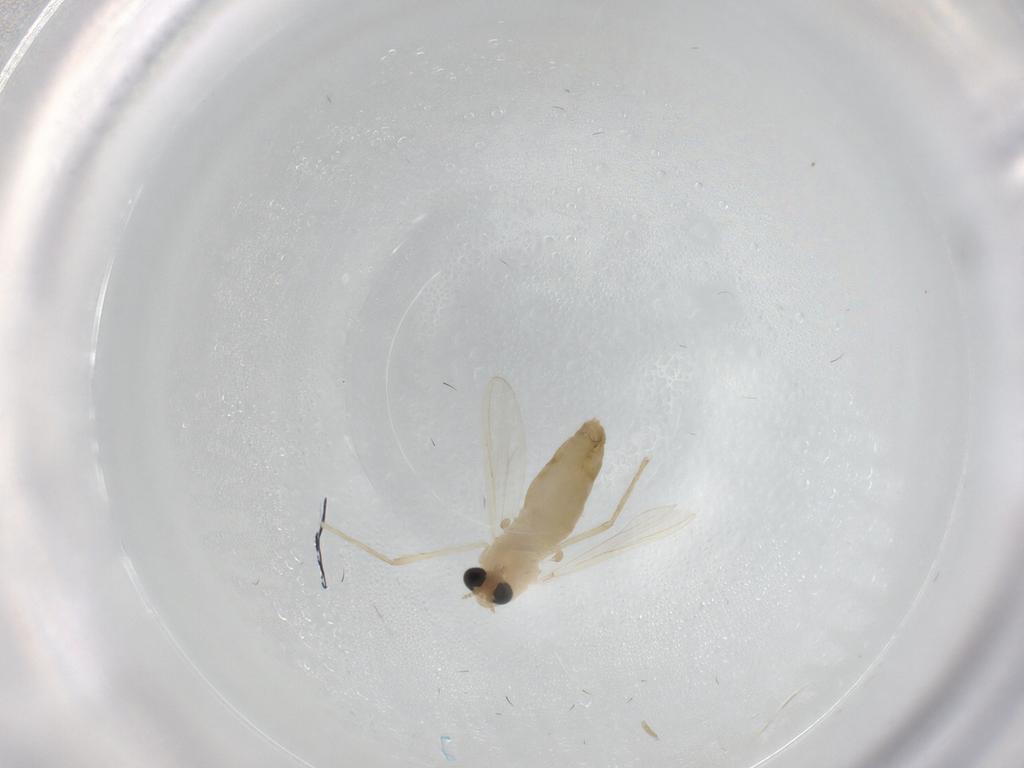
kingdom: Animalia
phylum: Arthropoda
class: Insecta
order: Diptera
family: Chironomidae
